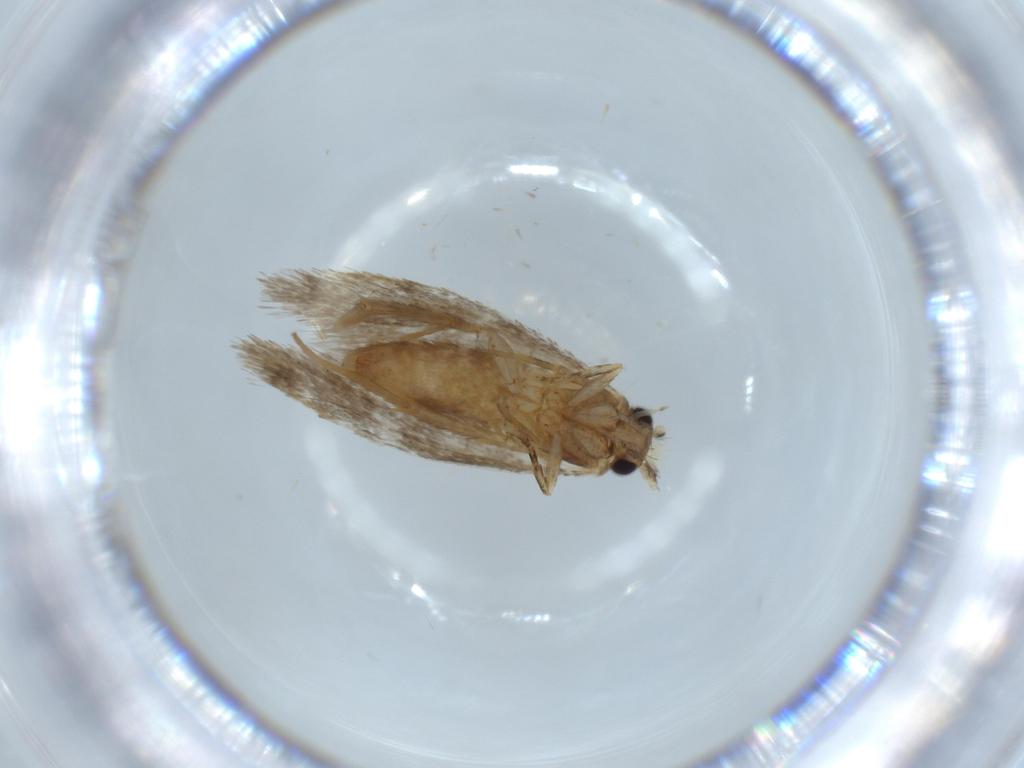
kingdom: Animalia
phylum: Arthropoda
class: Insecta
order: Lepidoptera
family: Tineidae
